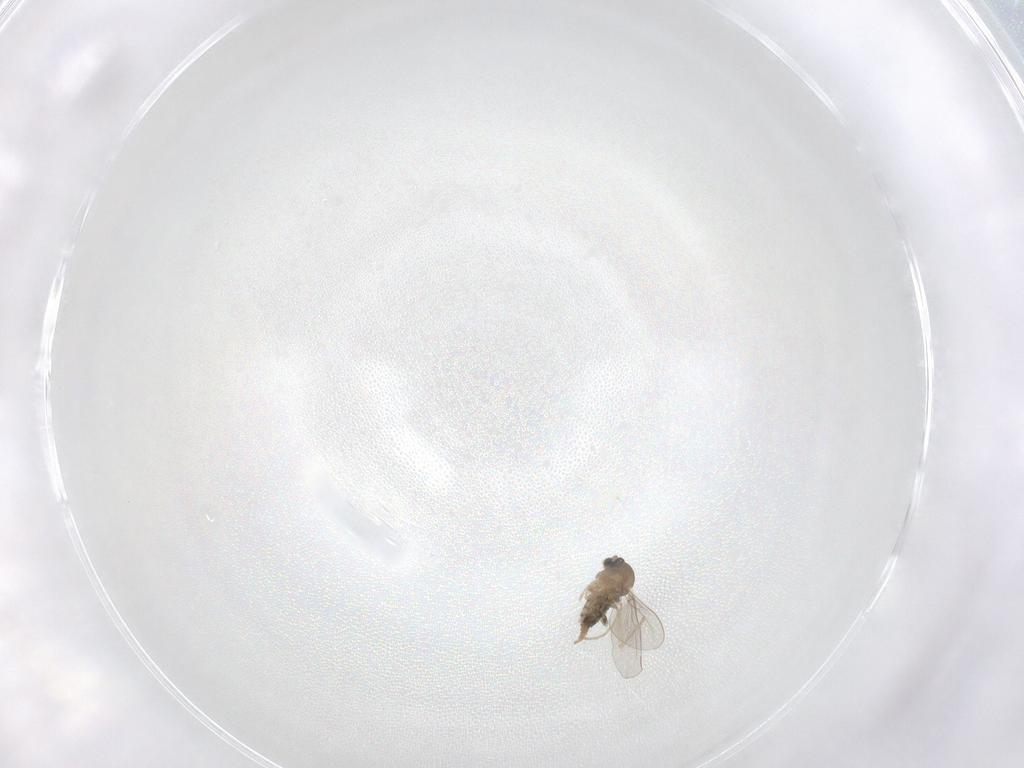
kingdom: Animalia
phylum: Arthropoda
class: Insecta
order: Diptera
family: Cecidomyiidae
